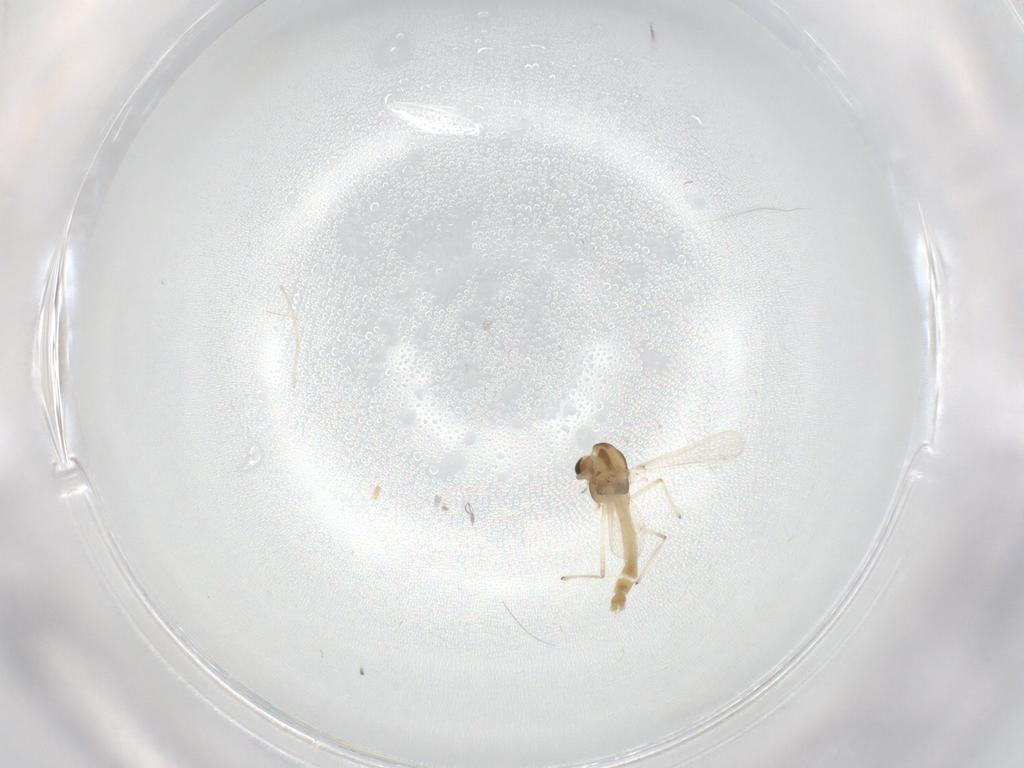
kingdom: Animalia
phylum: Arthropoda
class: Insecta
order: Diptera
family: Chironomidae
